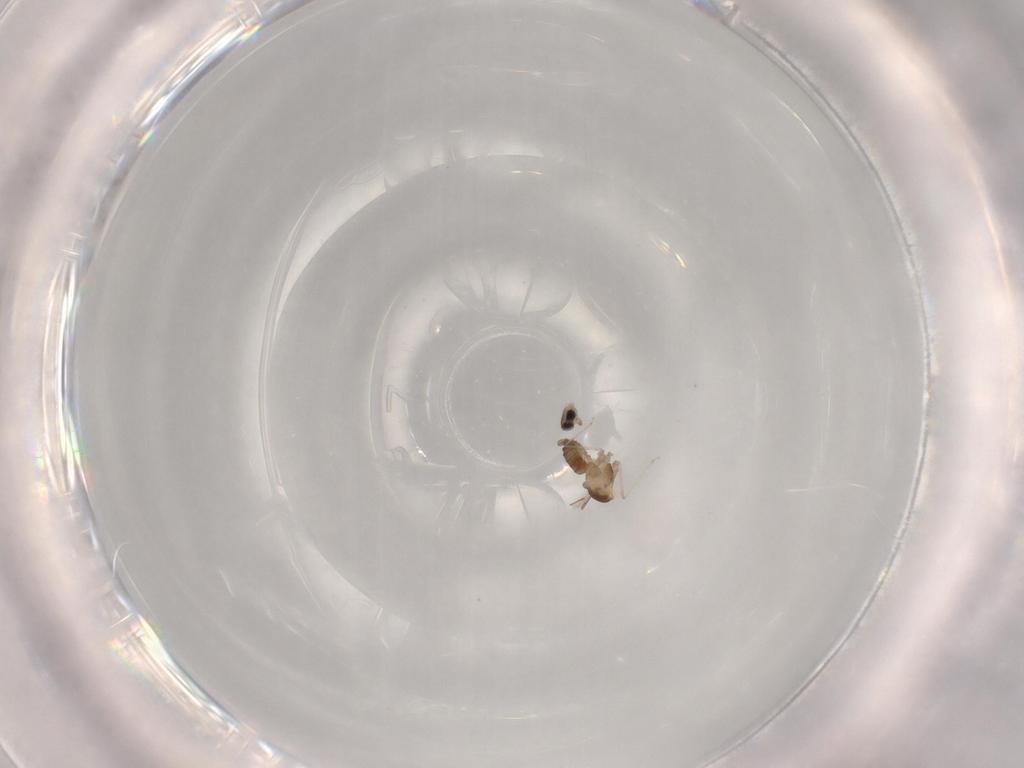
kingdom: Animalia
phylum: Arthropoda
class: Insecta
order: Diptera
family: Cecidomyiidae
